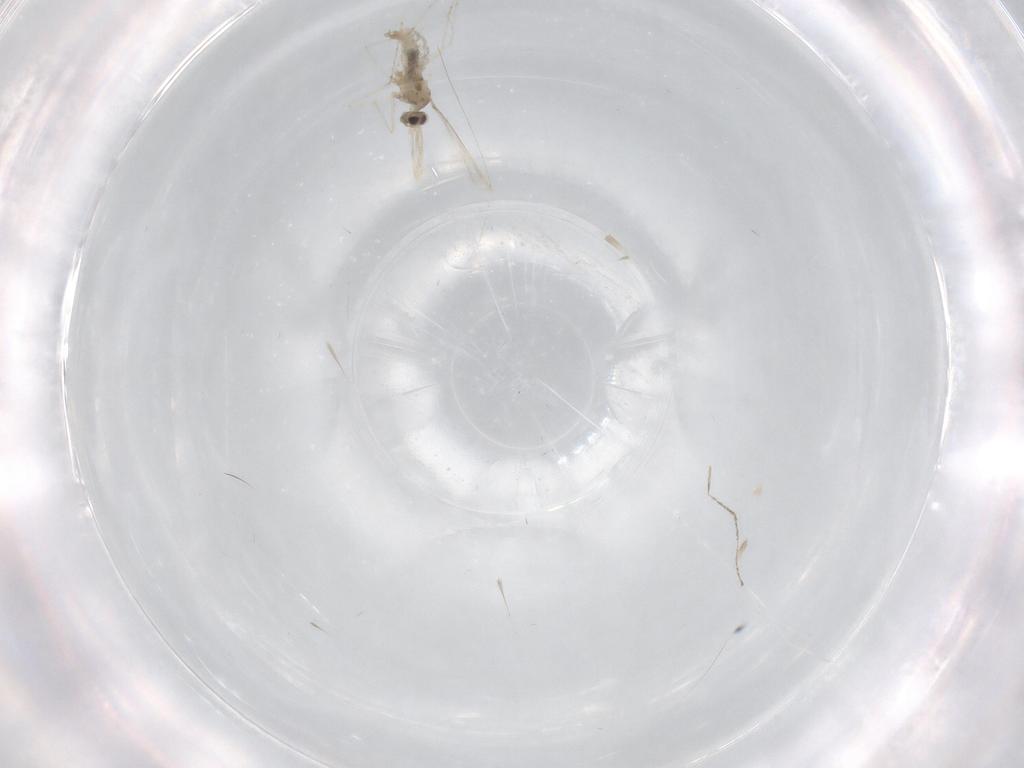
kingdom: Animalia
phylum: Arthropoda
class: Insecta
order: Diptera
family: Cecidomyiidae
